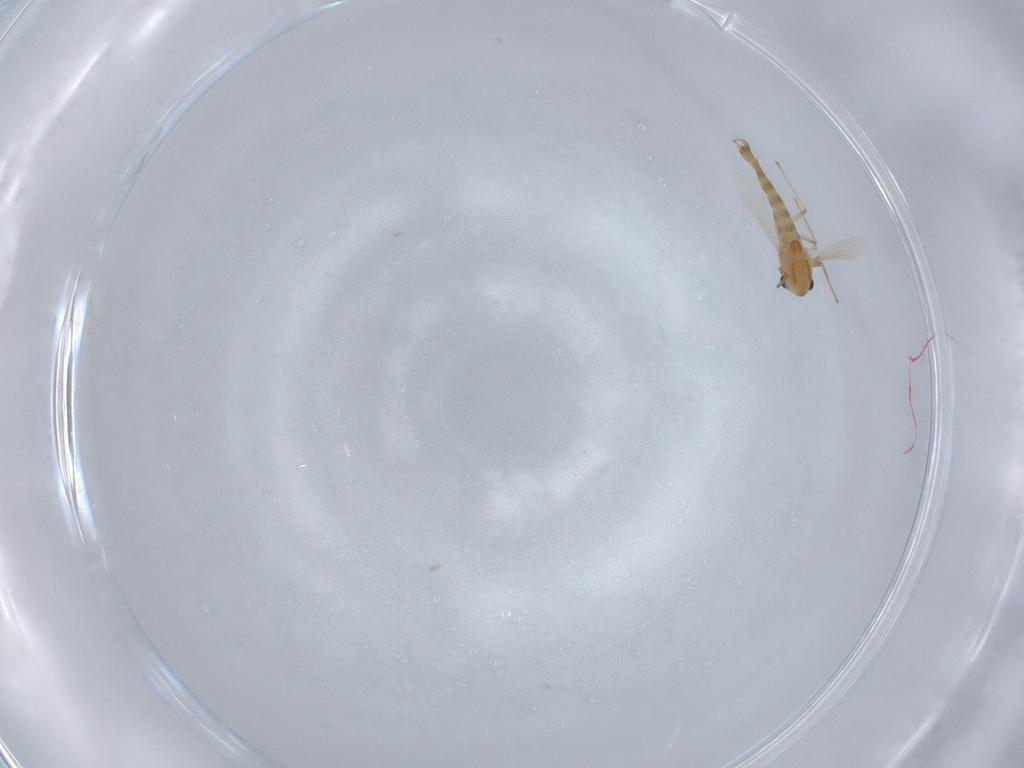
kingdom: Animalia
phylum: Arthropoda
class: Insecta
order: Diptera
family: Chironomidae
